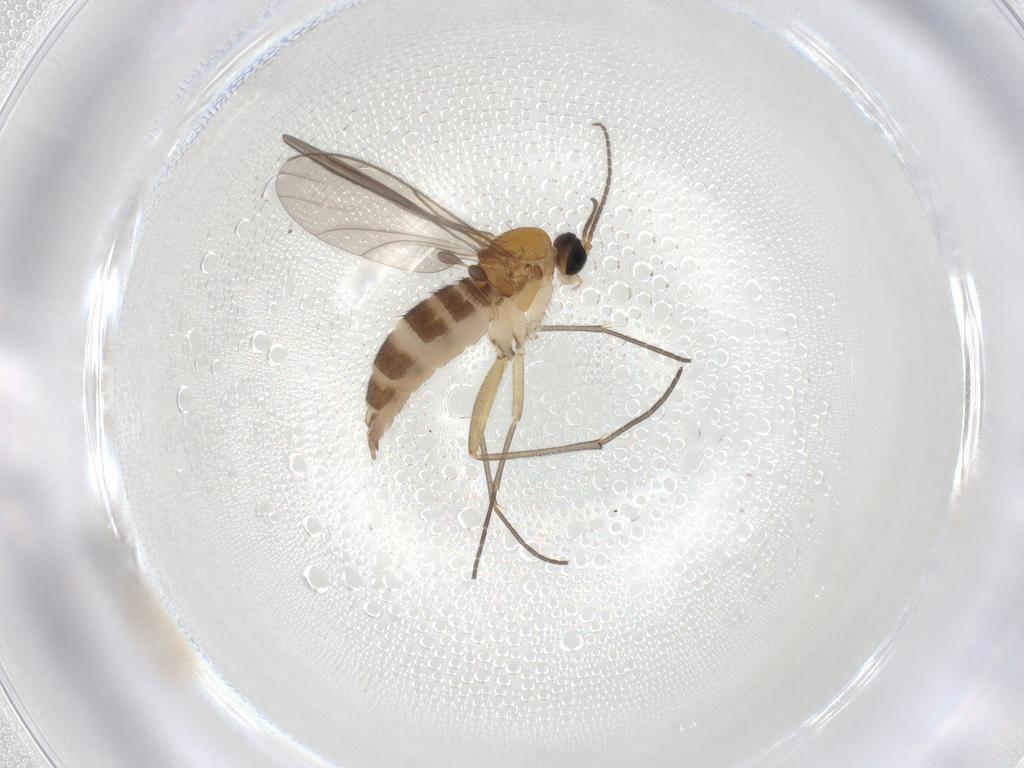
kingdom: Animalia
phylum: Arthropoda
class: Insecta
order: Diptera
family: Sciaridae
